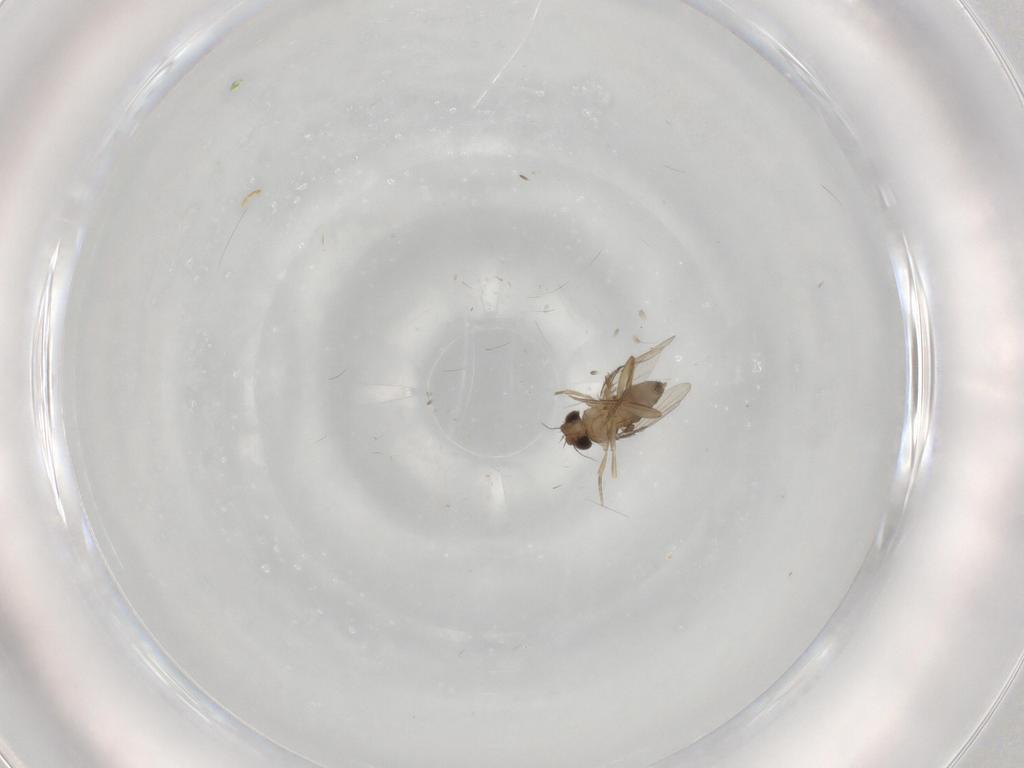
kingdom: Animalia
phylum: Arthropoda
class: Insecta
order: Diptera
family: Phoridae
